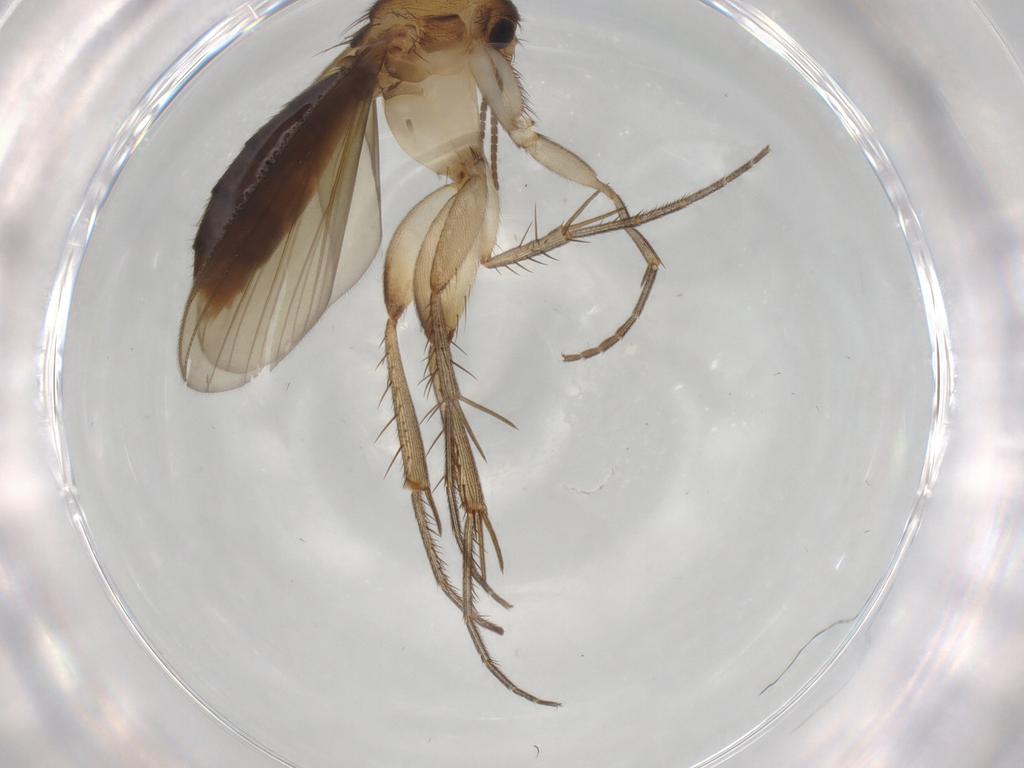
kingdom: Animalia
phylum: Arthropoda
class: Insecta
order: Diptera
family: Mycetophilidae
